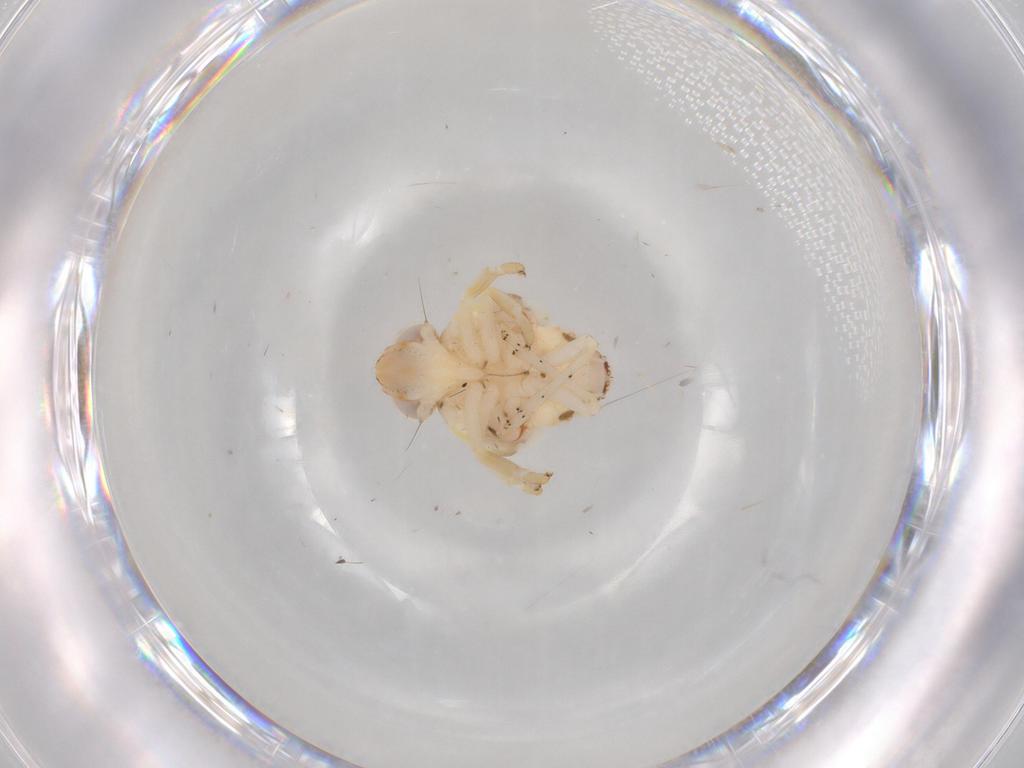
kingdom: Animalia
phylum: Arthropoda
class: Insecta
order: Hemiptera
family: Nogodinidae
